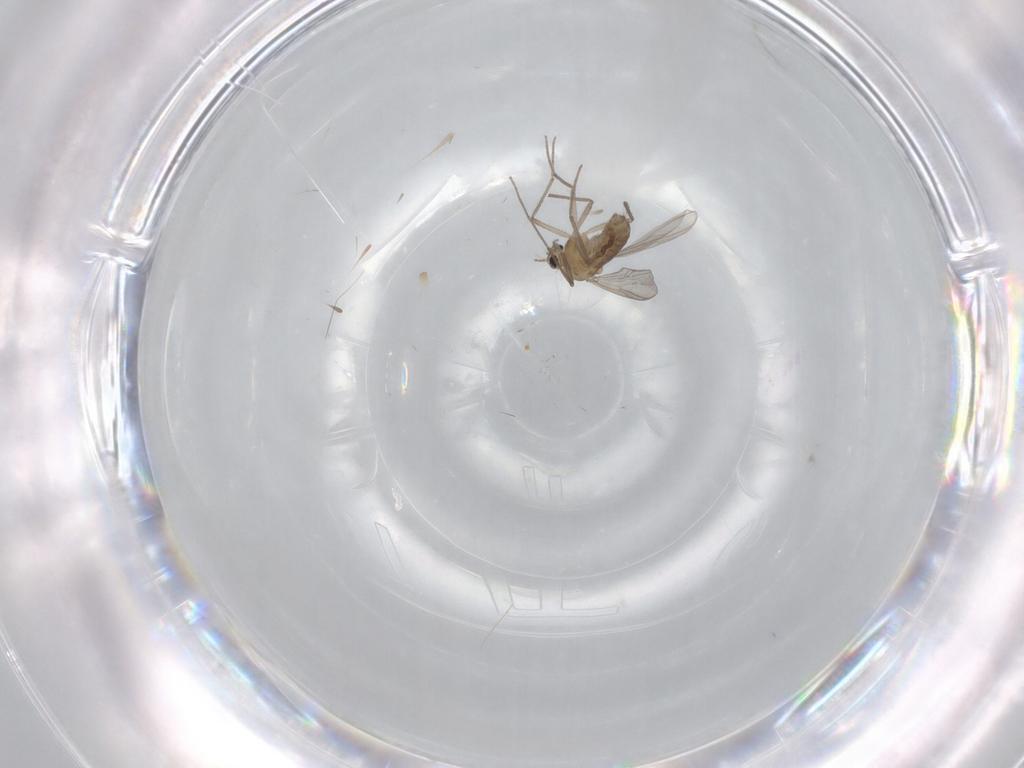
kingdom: Animalia
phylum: Arthropoda
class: Insecta
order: Diptera
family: Chironomidae
